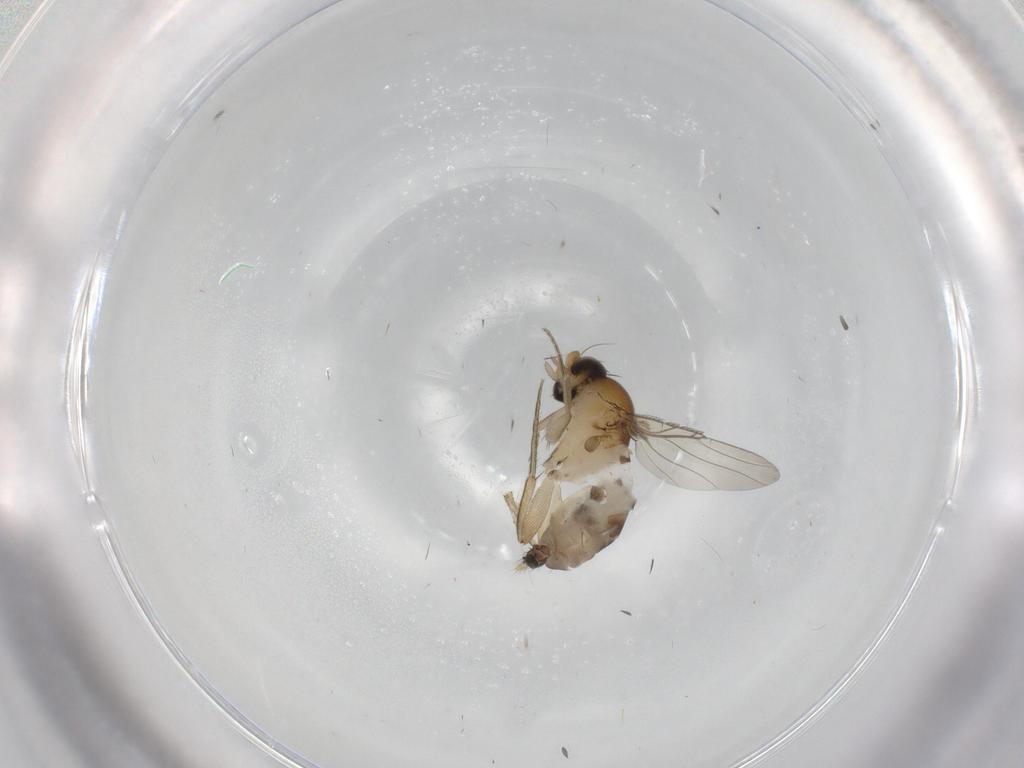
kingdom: Animalia
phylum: Arthropoda
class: Insecta
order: Diptera
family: Phoridae
